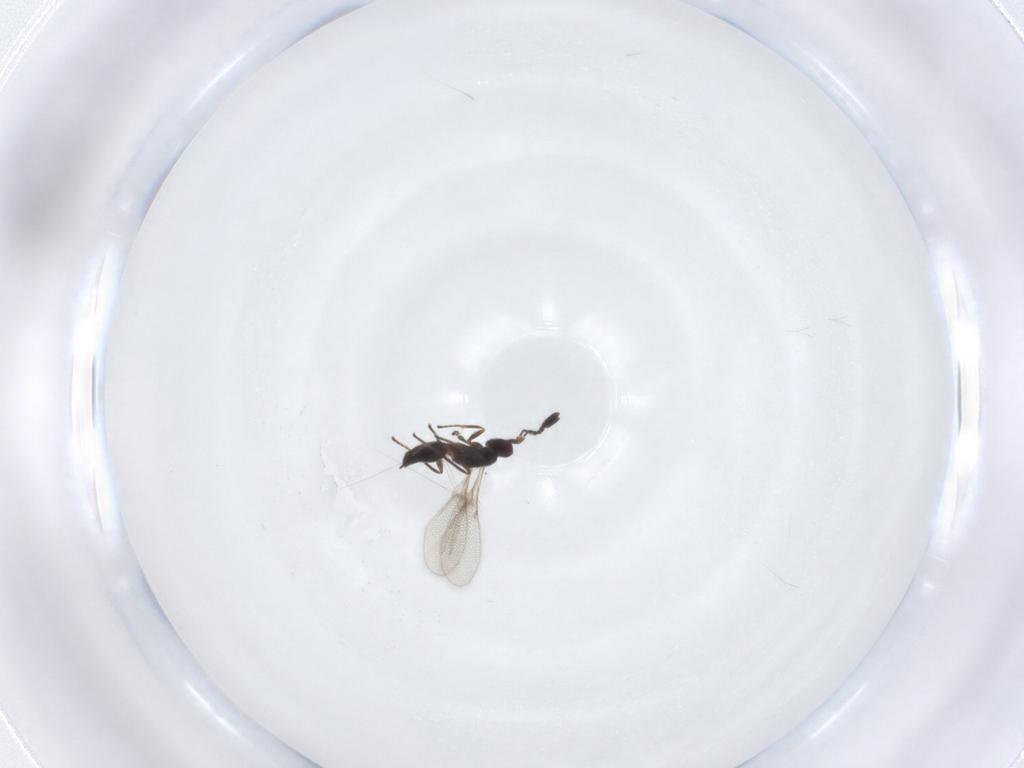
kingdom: Animalia
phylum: Arthropoda
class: Insecta
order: Hymenoptera
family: Mymaridae
